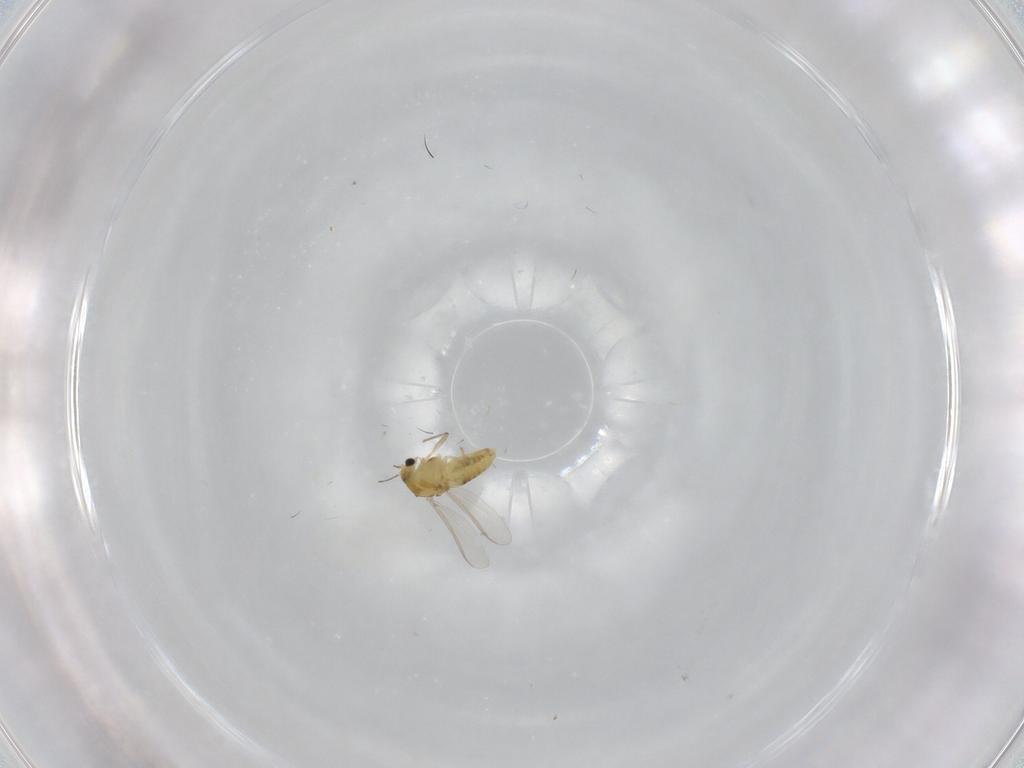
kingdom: Animalia
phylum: Arthropoda
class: Insecta
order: Diptera
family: Chironomidae
